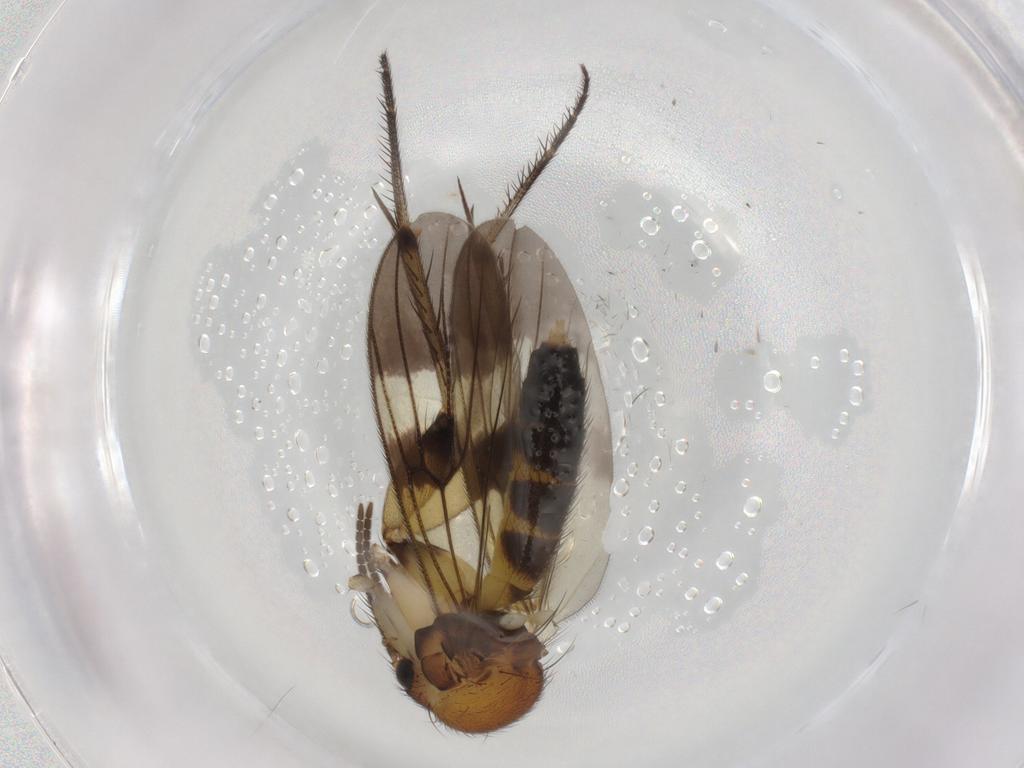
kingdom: Animalia
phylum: Arthropoda
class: Insecta
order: Diptera
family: Mycetophilidae
